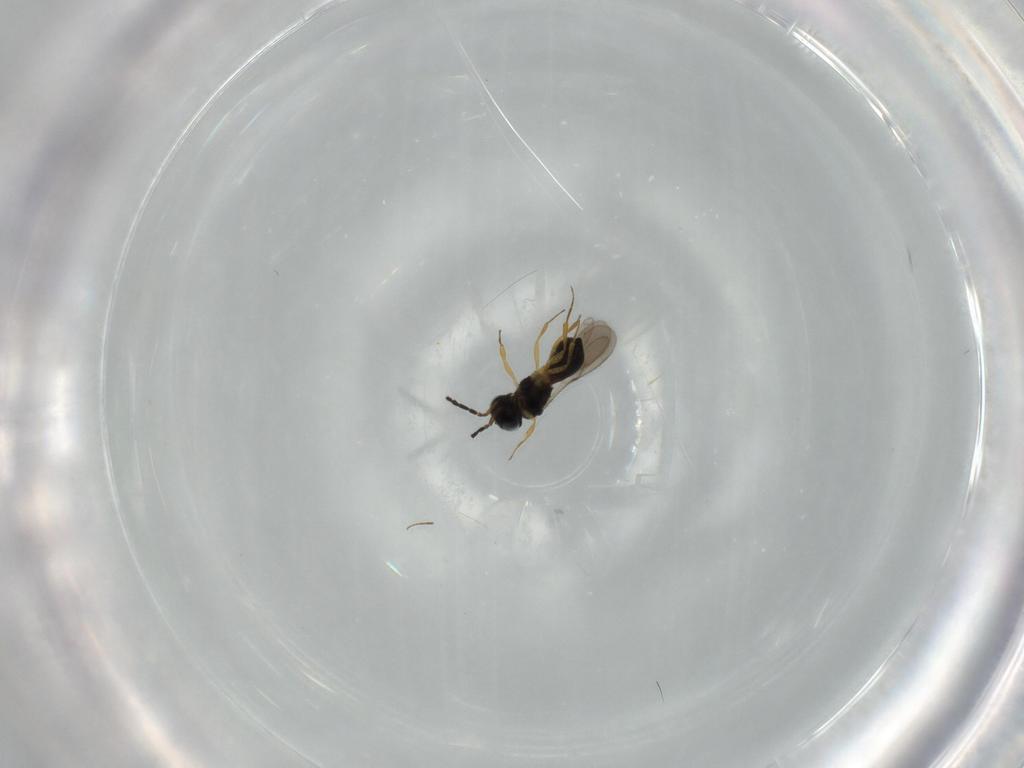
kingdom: Animalia
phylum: Arthropoda
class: Insecta
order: Hymenoptera
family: Scelionidae
